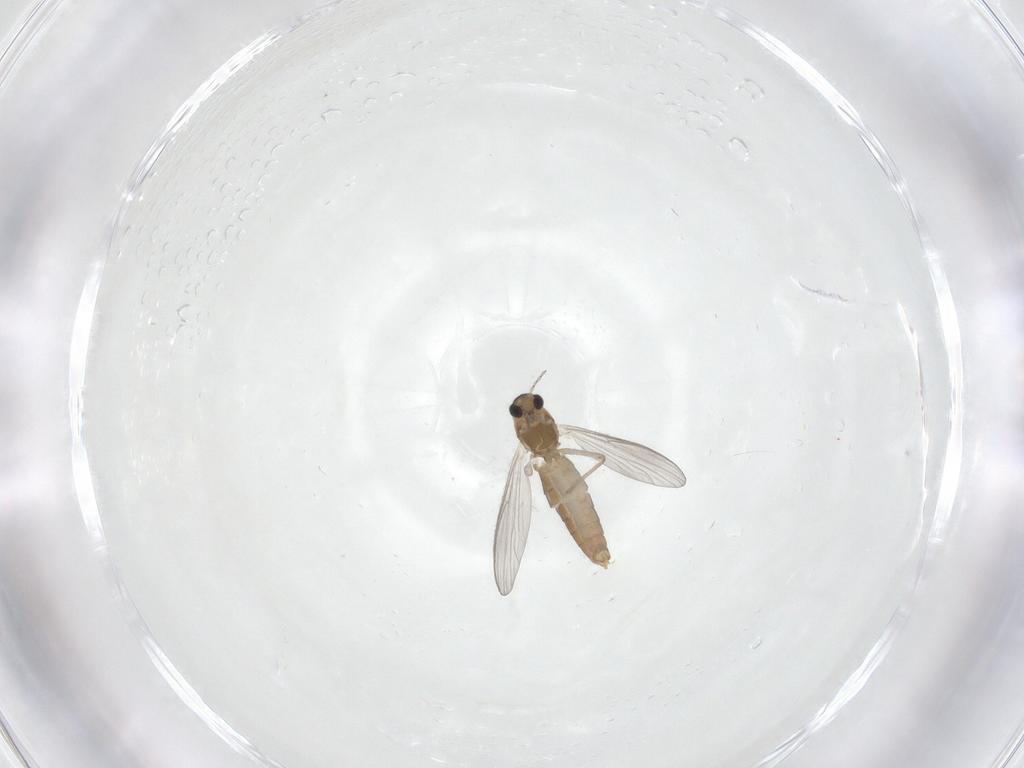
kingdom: Animalia
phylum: Arthropoda
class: Insecta
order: Diptera
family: Chironomidae
